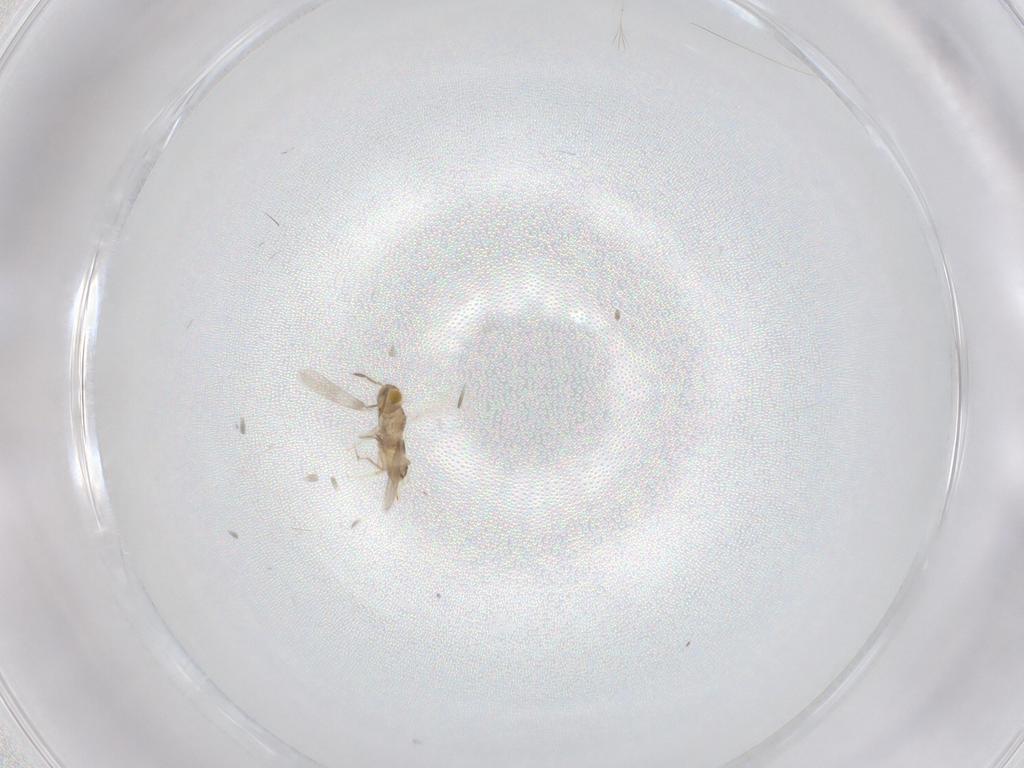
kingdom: Animalia
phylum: Arthropoda
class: Insecta
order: Hymenoptera
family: Aphelinidae
